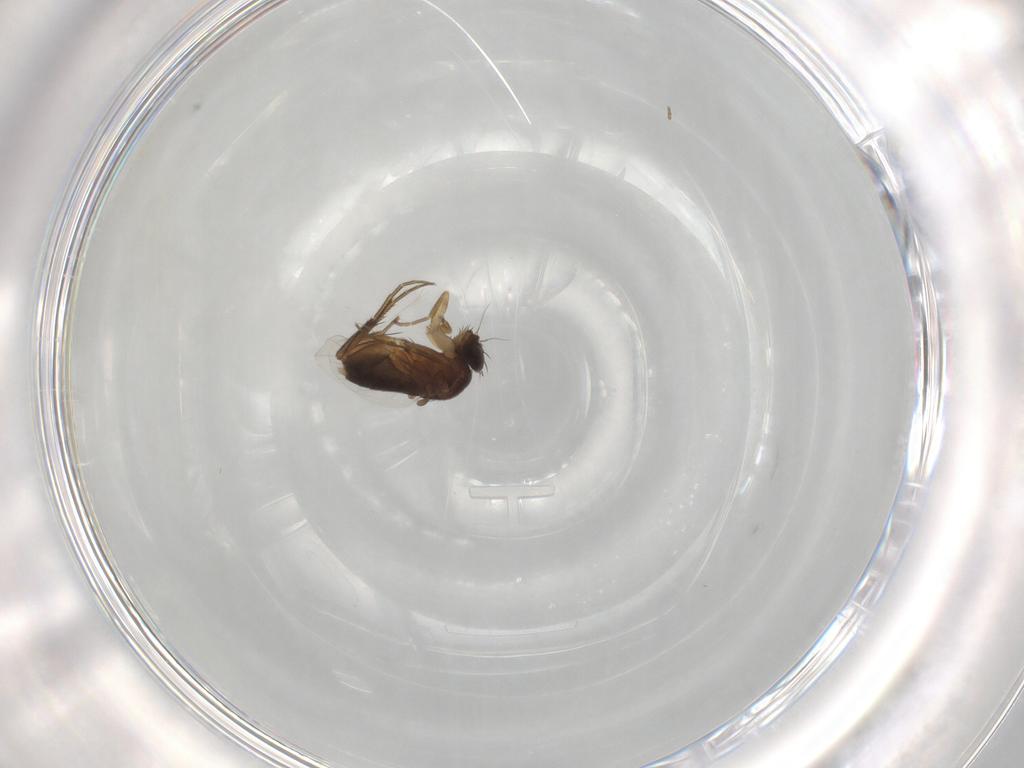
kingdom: Animalia
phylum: Arthropoda
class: Insecta
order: Diptera
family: Phoridae
